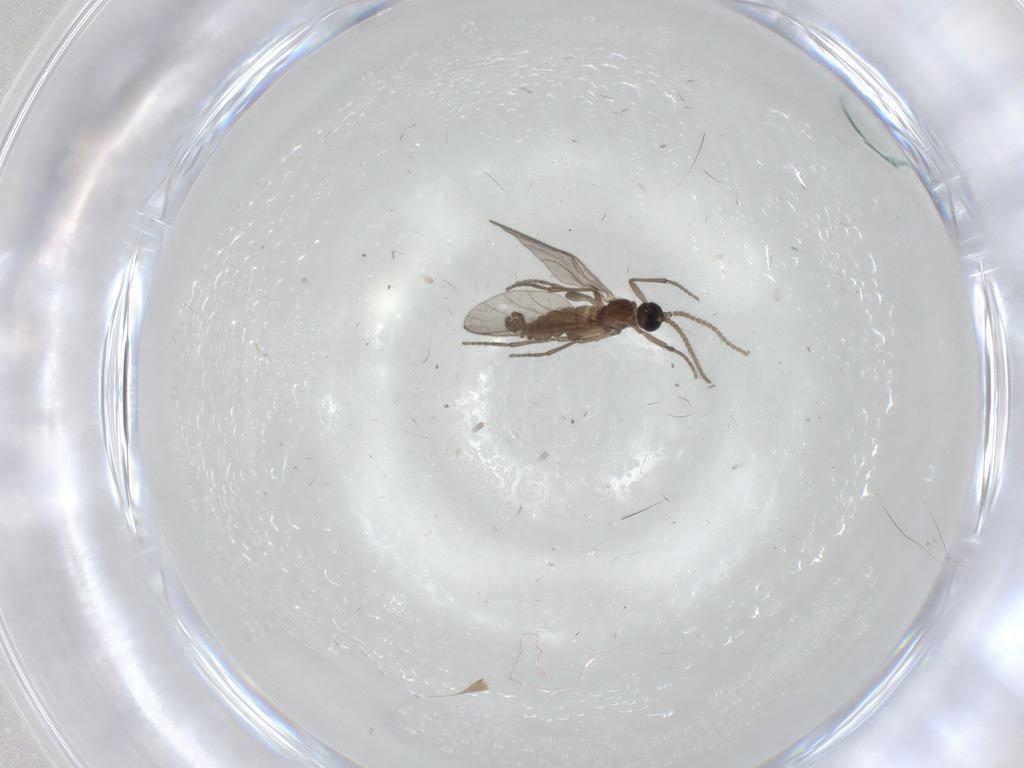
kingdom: Animalia
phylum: Arthropoda
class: Insecta
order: Diptera
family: Sciaridae
